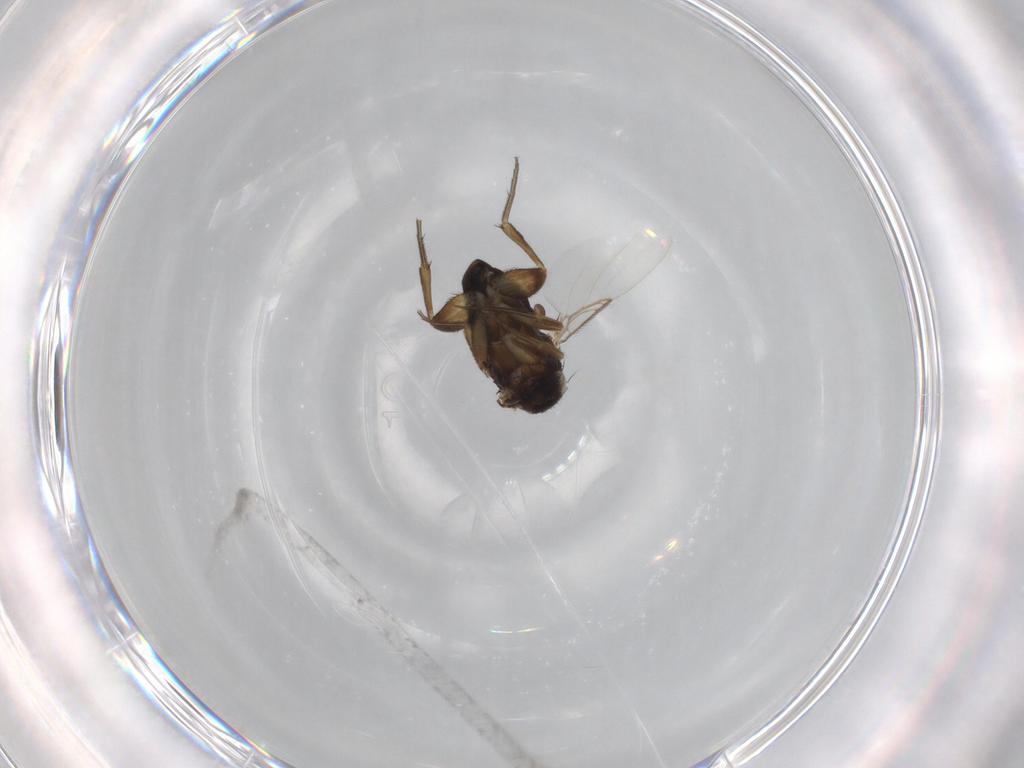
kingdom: Animalia
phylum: Arthropoda
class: Insecta
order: Diptera
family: Phoridae
